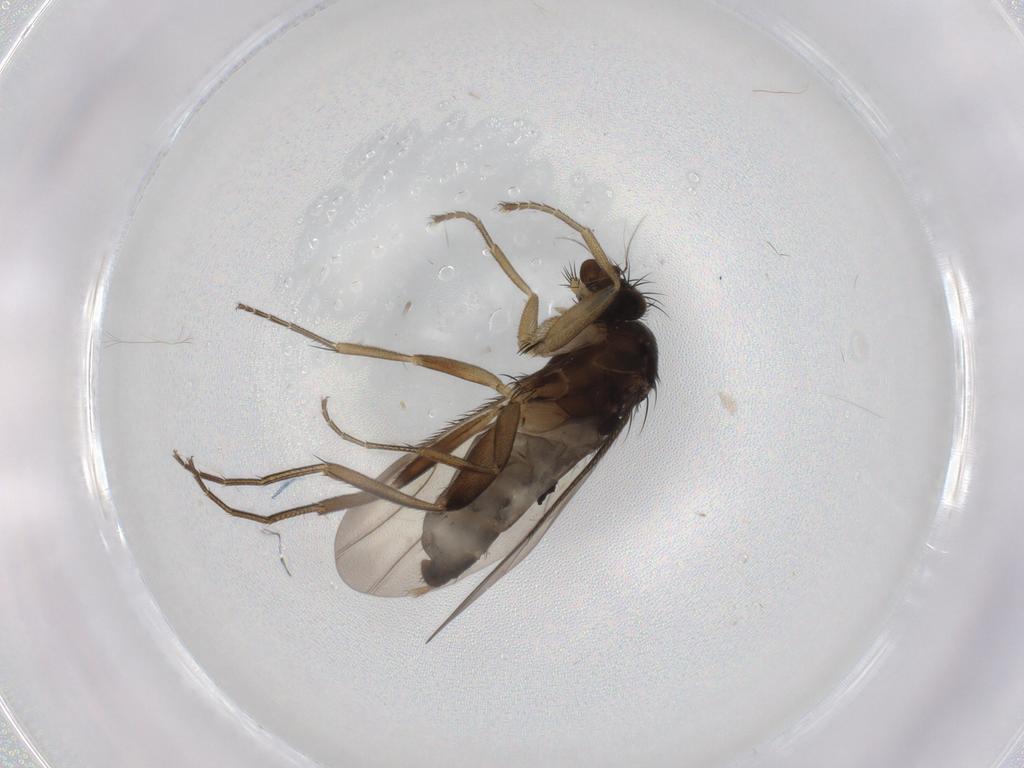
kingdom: Animalia
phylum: Arthropoda
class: Insecta
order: Diptera
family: Phoridae
